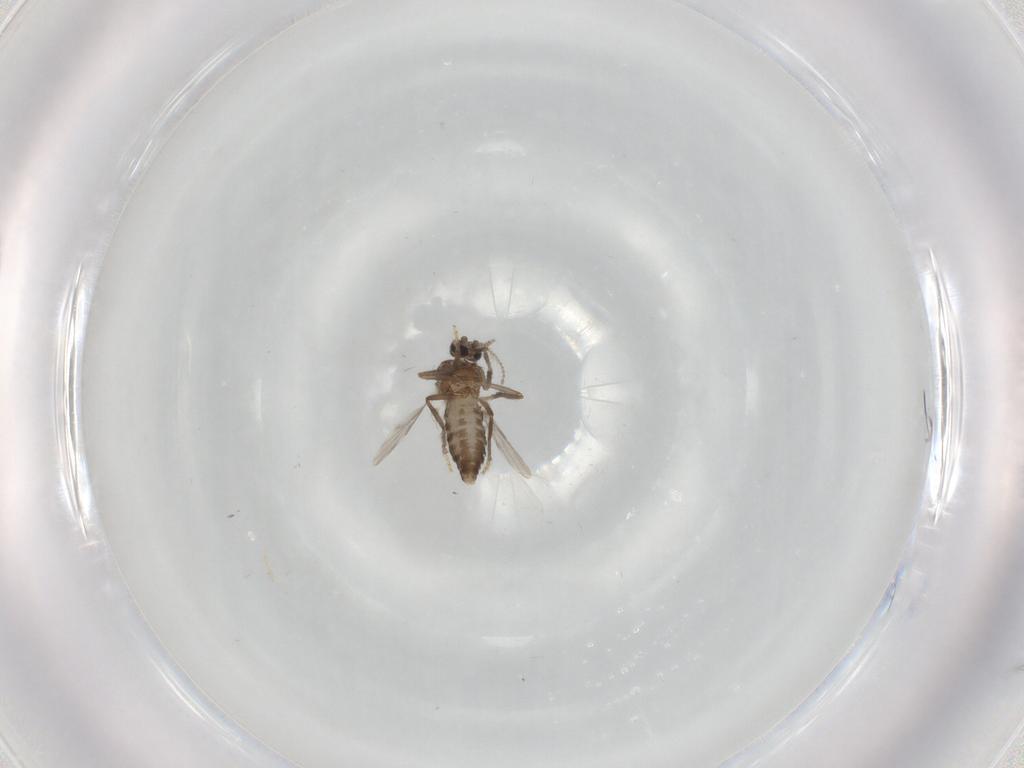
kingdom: Animalia
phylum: Arthropoda
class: Insecta
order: Diptera
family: Ceratopogonidae
